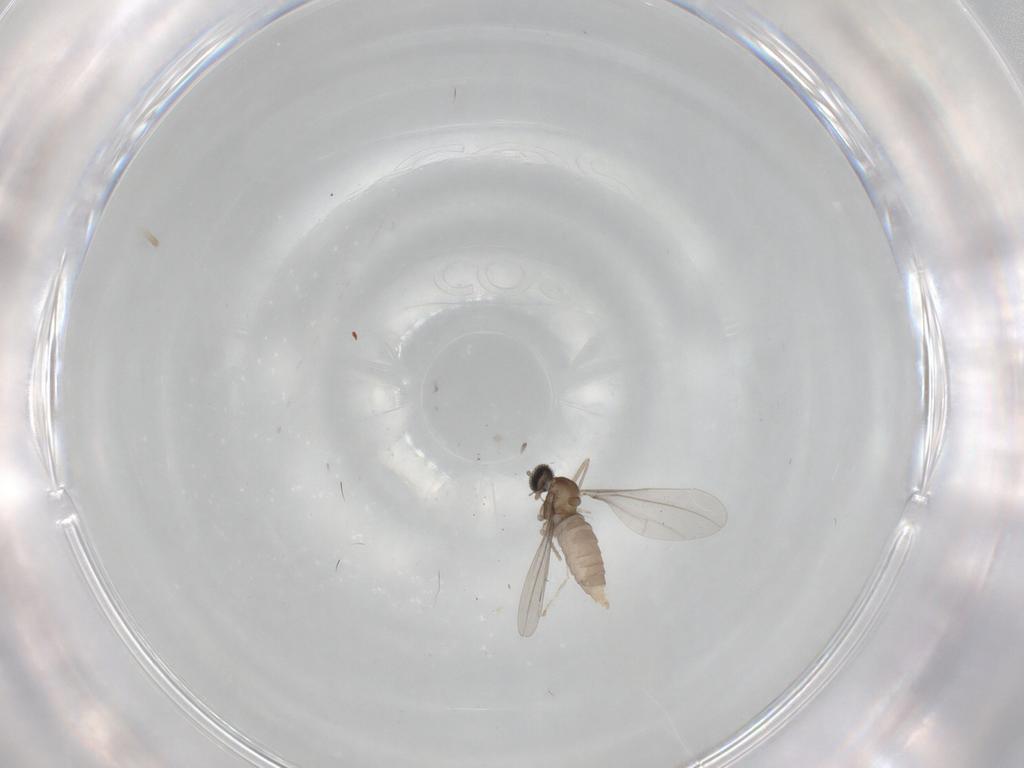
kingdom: Animalia
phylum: Arthropoda
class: Insecta
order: Diptera
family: Cecidomyiidae
